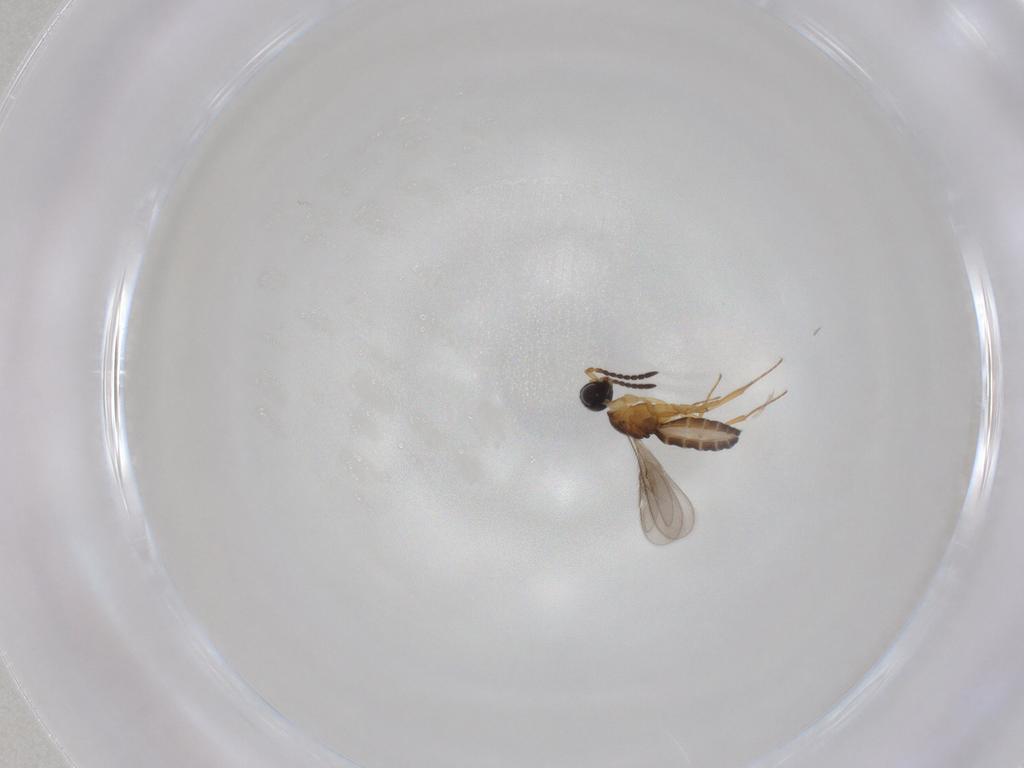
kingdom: Animalia
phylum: Arthropoda
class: Insecta
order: Hymenoptera
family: Scelionidae
